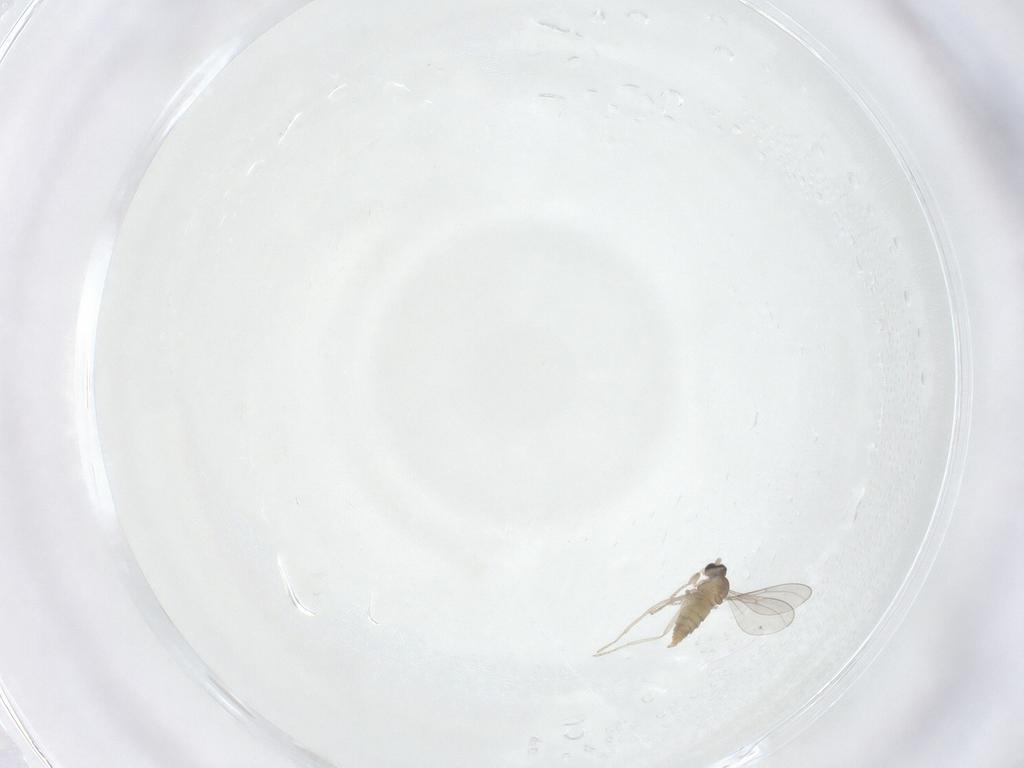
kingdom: Animalia
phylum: Arthropoda
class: Insecta
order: Diptera
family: Cecidomyiidae
